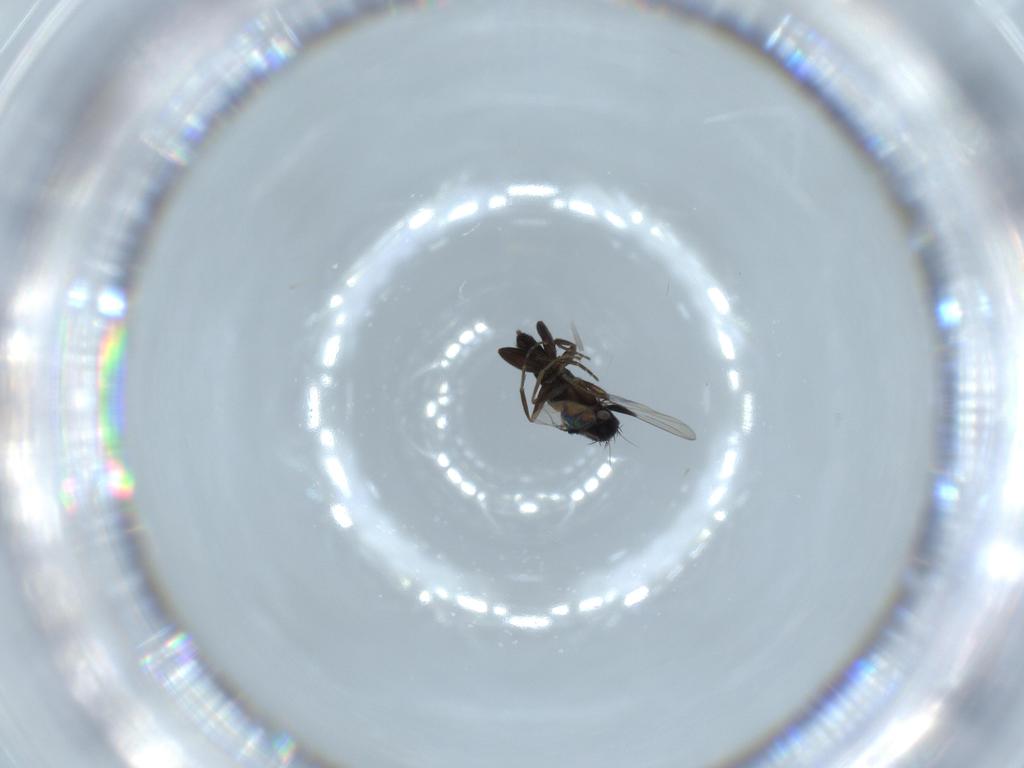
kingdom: Animalia
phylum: Arthropoda
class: Insecta
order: Diptera
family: Phoridae
